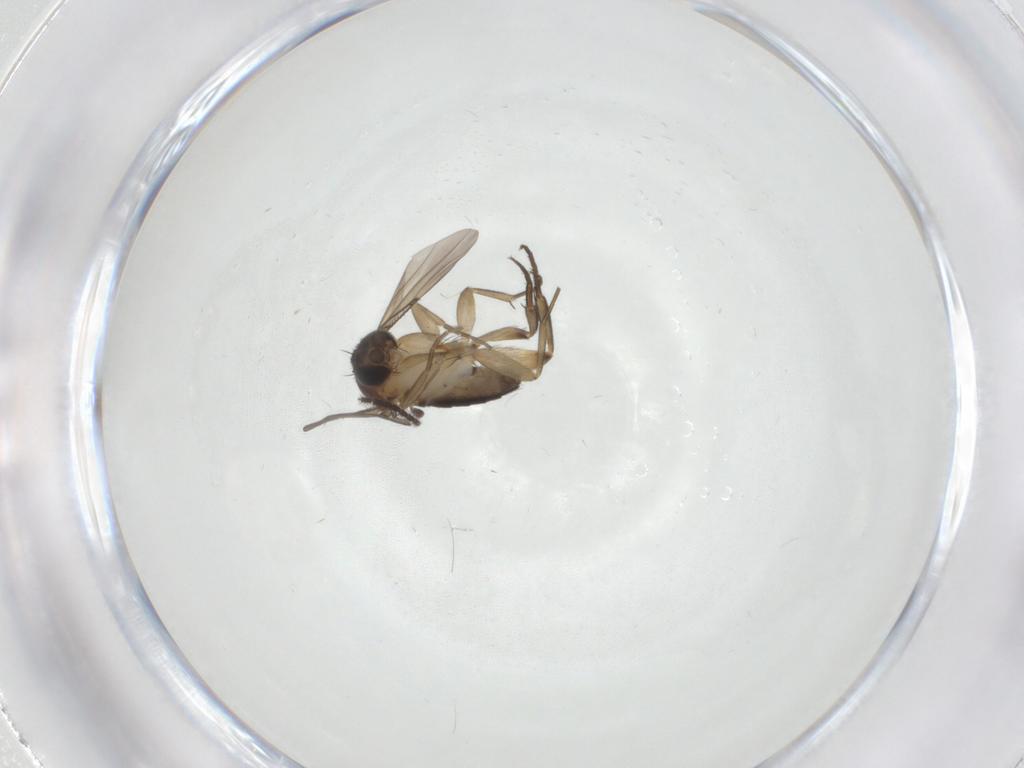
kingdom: Animalia
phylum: Arthropoda
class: Insecta
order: Diptera
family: Phoridae
